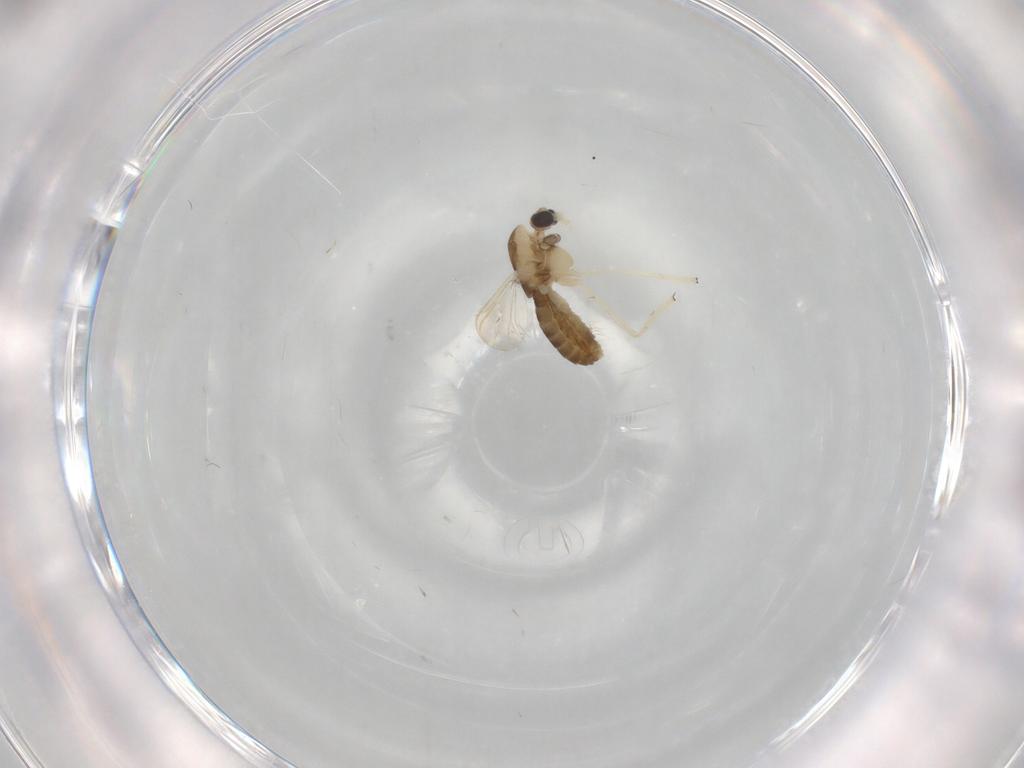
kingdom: Animalia
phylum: Arthropoda
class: Insecta
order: Diptera
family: Chironomidae
